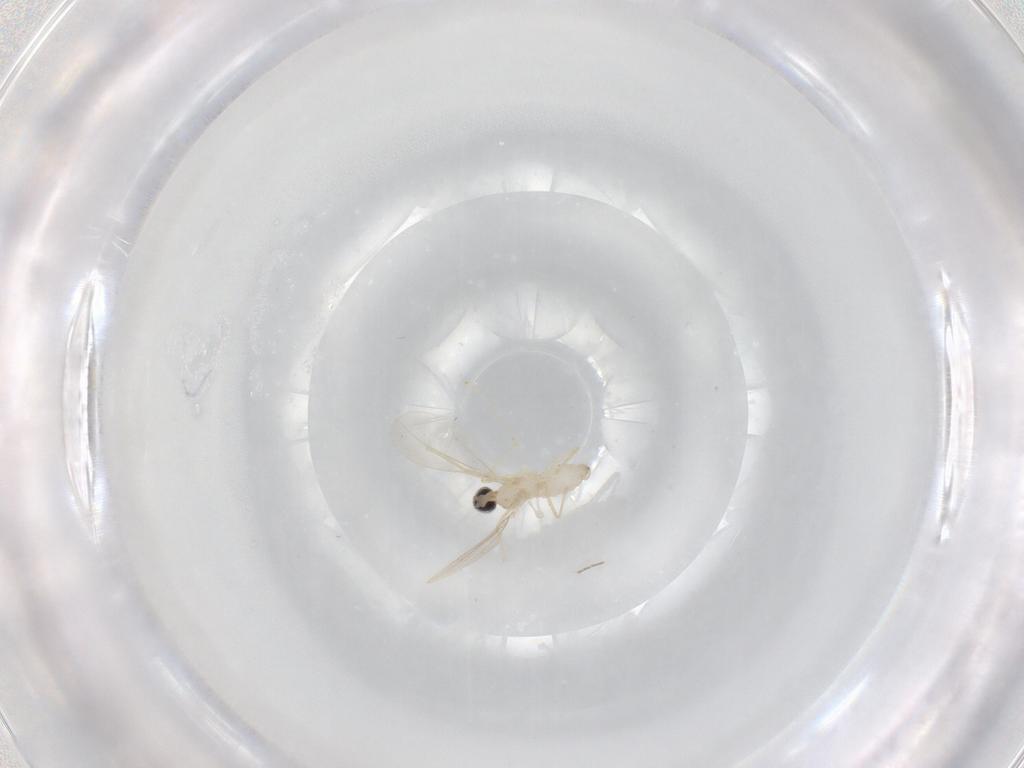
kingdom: Animalia
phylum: Arthropoda
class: Insecta
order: Diptera
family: Cecidomyiidae
